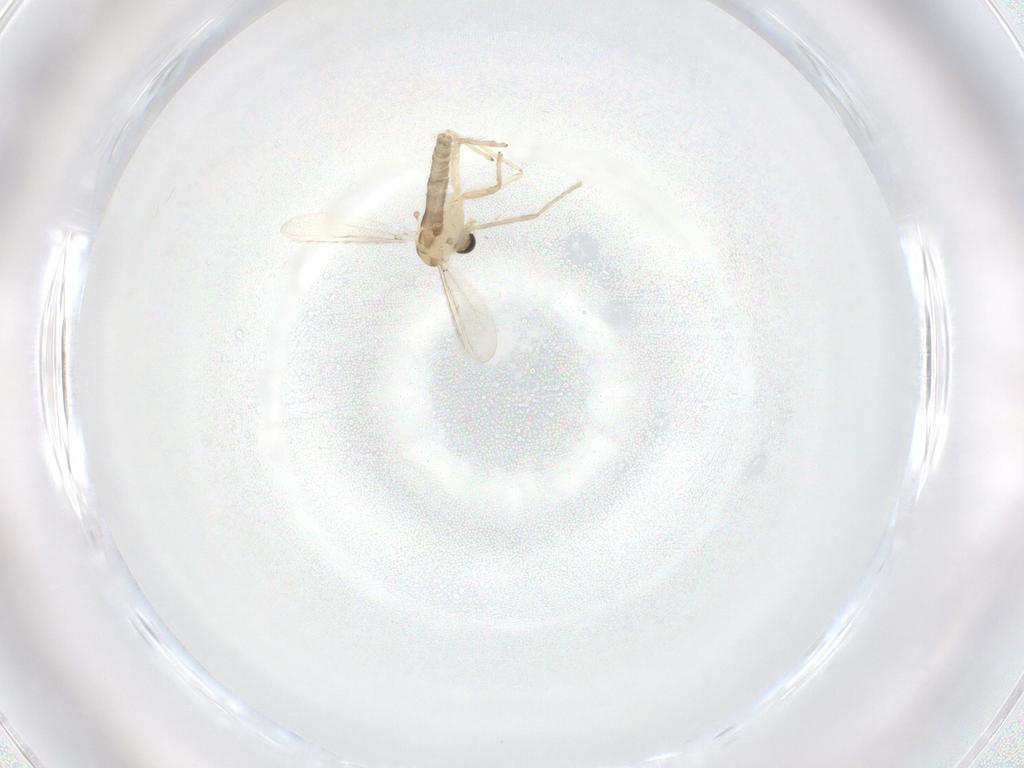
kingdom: Animalia
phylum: Arthropoda
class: Insecta
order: Diptera
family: Chironomidae
